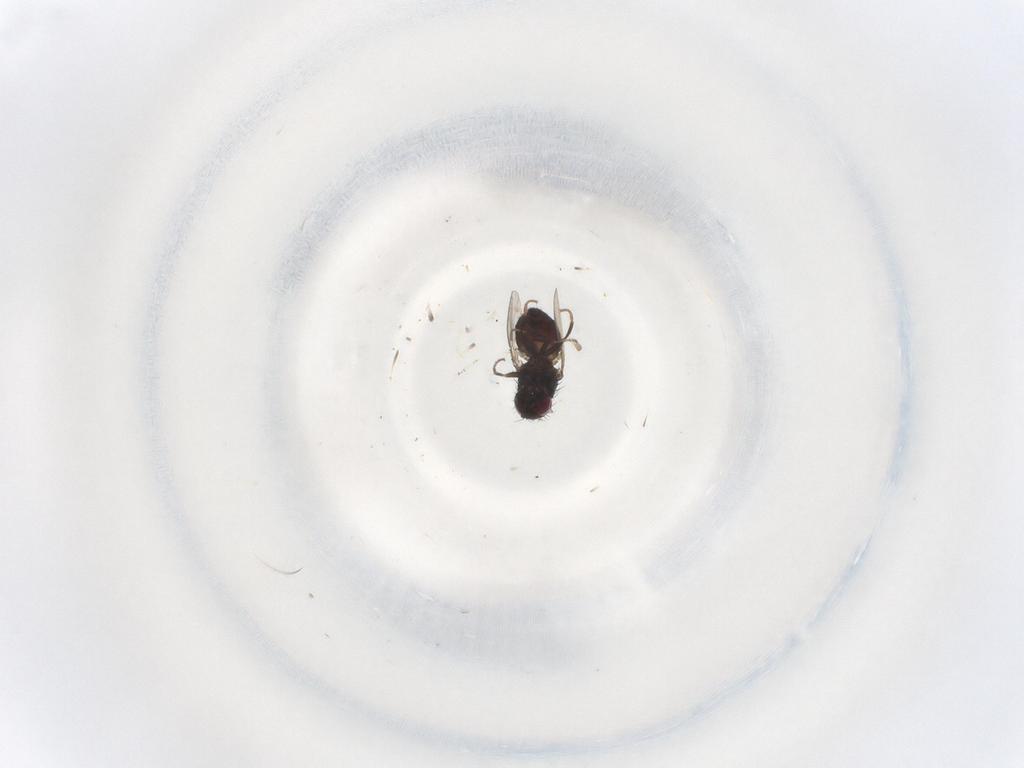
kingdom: Animalia
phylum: Arthropoda
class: Insecta
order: Diptera
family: Carnidae
